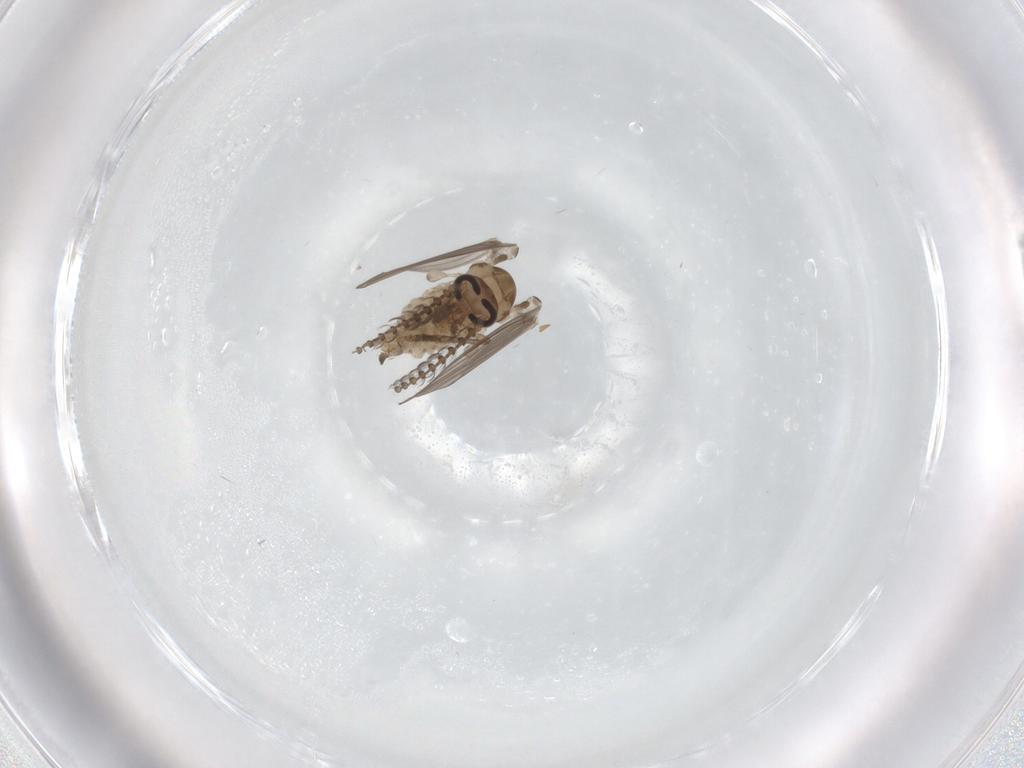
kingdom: Animalia
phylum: Arthropoda
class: Insecta
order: Diptera
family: Psychodidae
